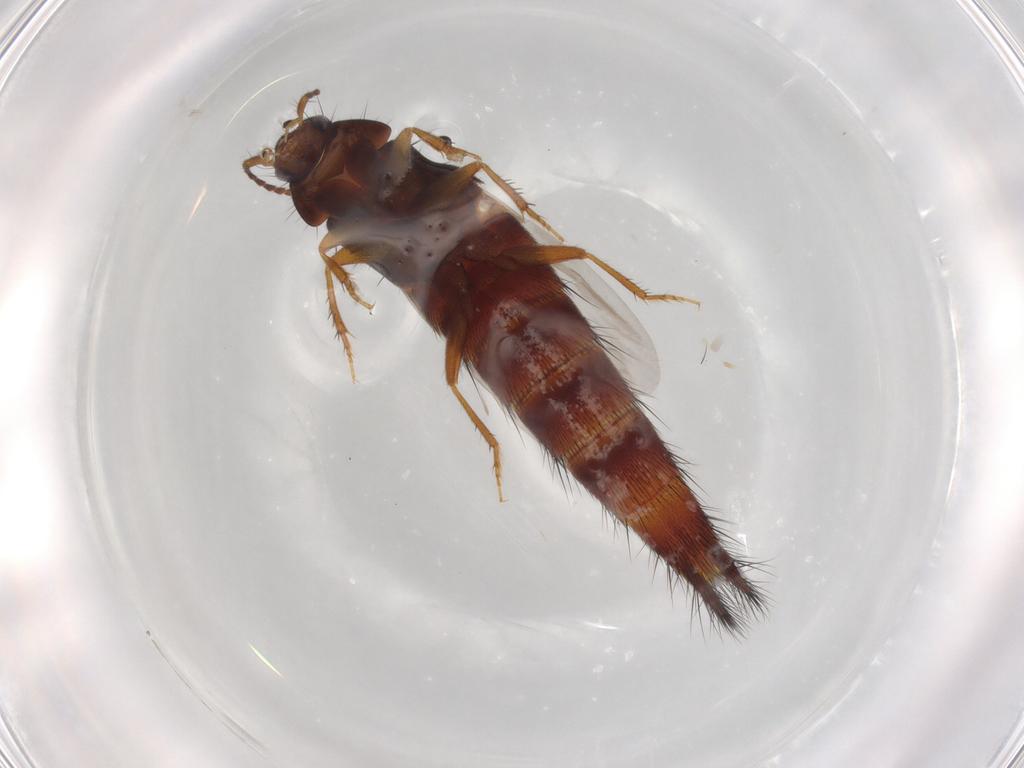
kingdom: Animalia
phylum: Arthropoda
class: Insecta
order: Coleoptera
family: Staphylinidae
